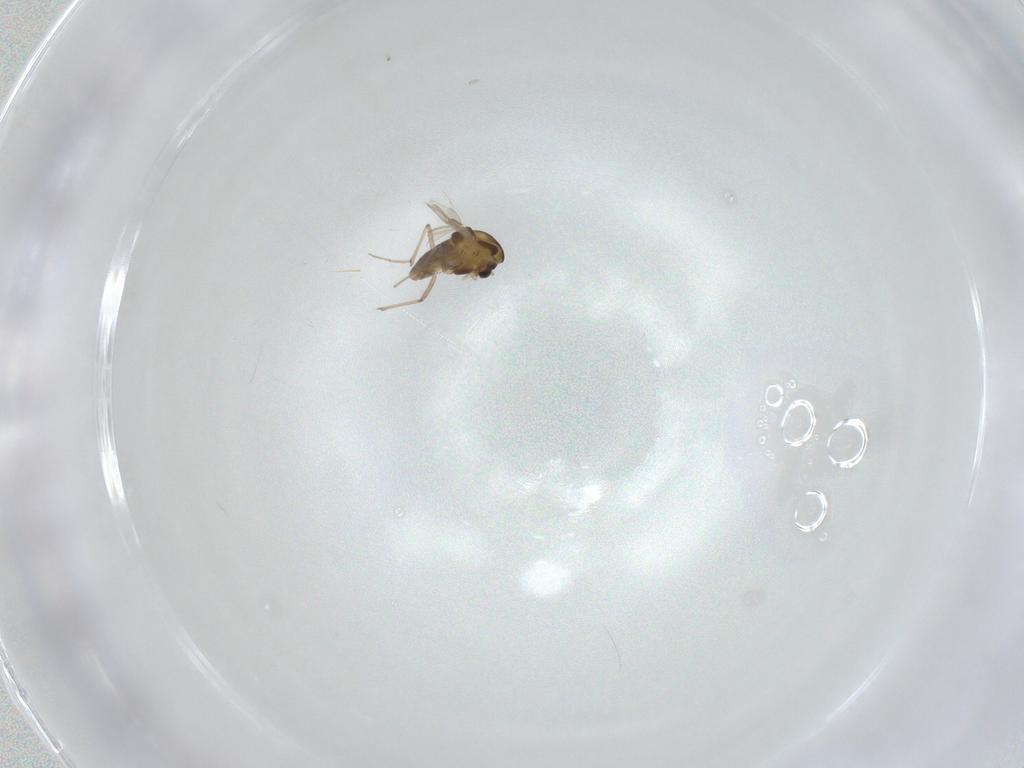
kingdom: Animalia
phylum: Arthropoda
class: Insecta
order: Diptera
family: Chironomidae
